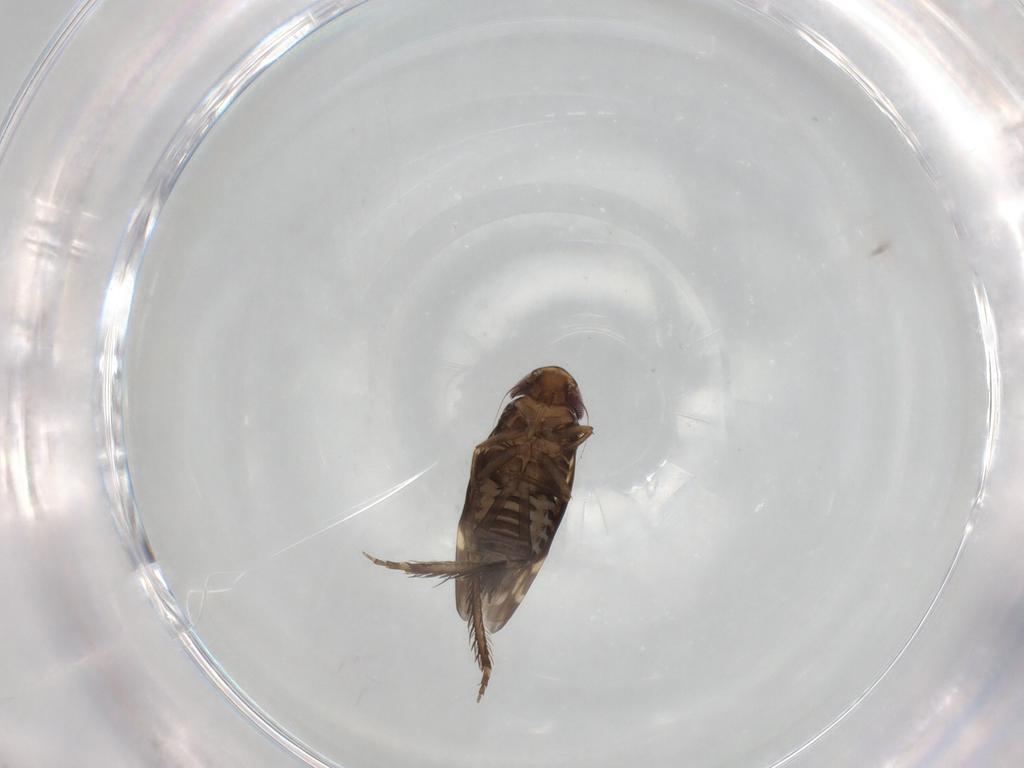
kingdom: Animalia
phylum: Arthropoda
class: Insecta
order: Hemiptera
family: Cicadellidae
